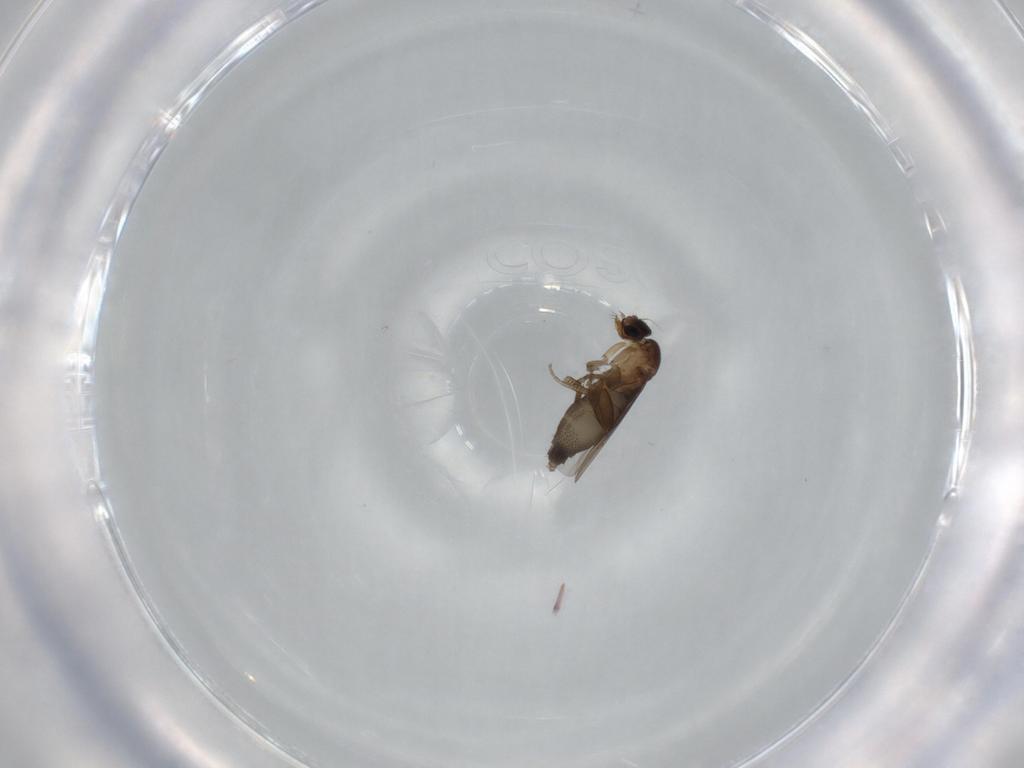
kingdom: Animalia
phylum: Arthropoda
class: Insecta
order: Diptera
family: Phoridae
